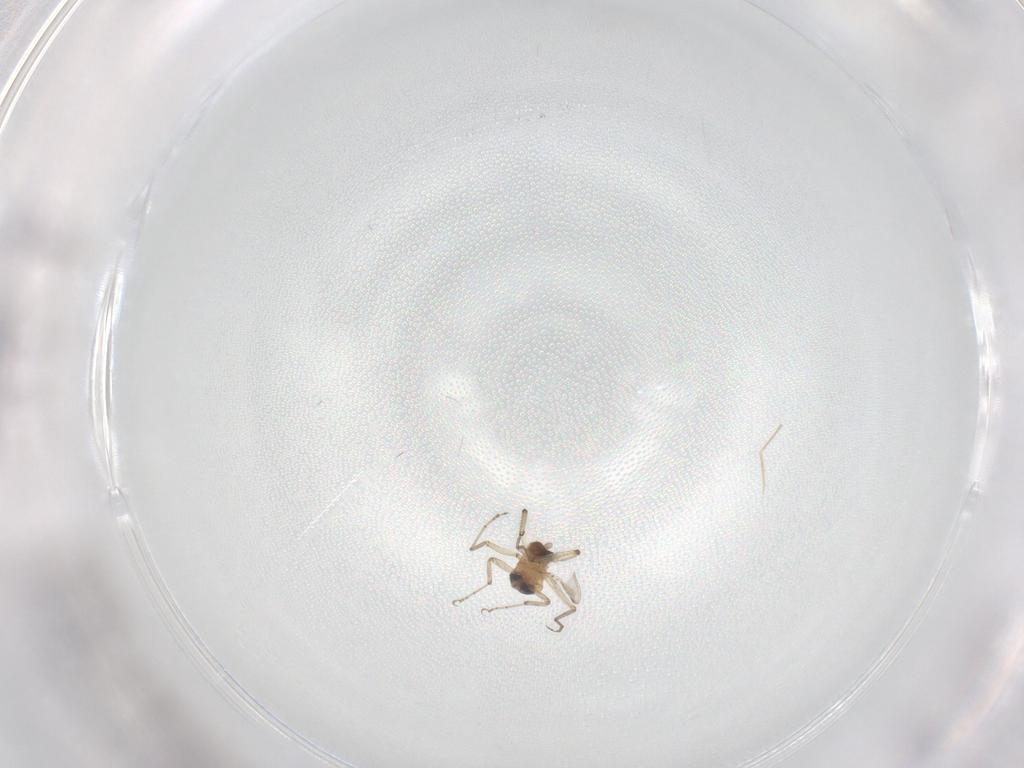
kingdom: Animalia
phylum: Arthropoda
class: Insecta
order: Diptera
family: Ceratopogonidae
